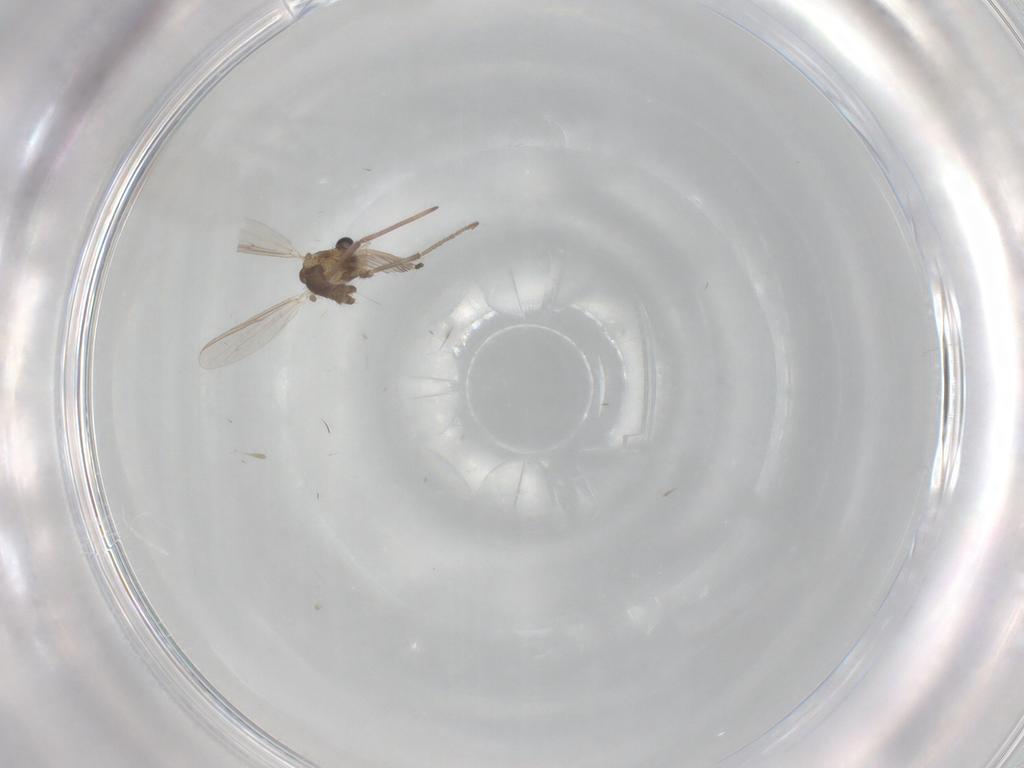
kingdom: Animalia
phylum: Arthropoda
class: Insecta
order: Diptera
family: Chironomidae
